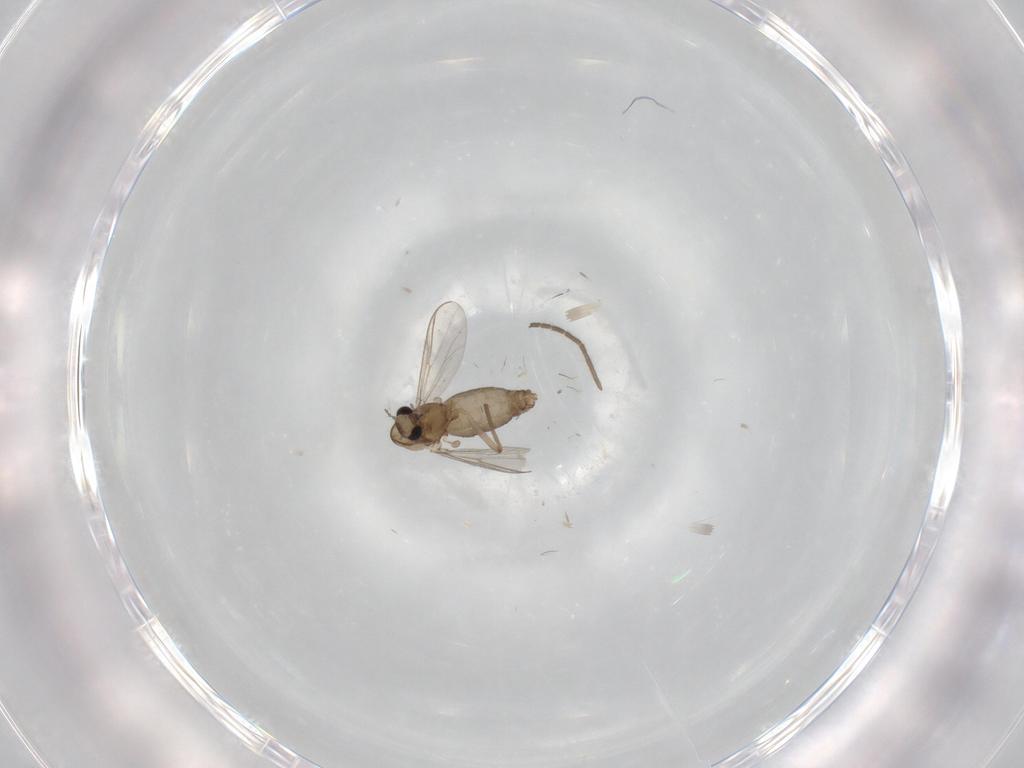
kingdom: Animalia
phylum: Arthropoda
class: Insecta
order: Diptera
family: Chironomidae
